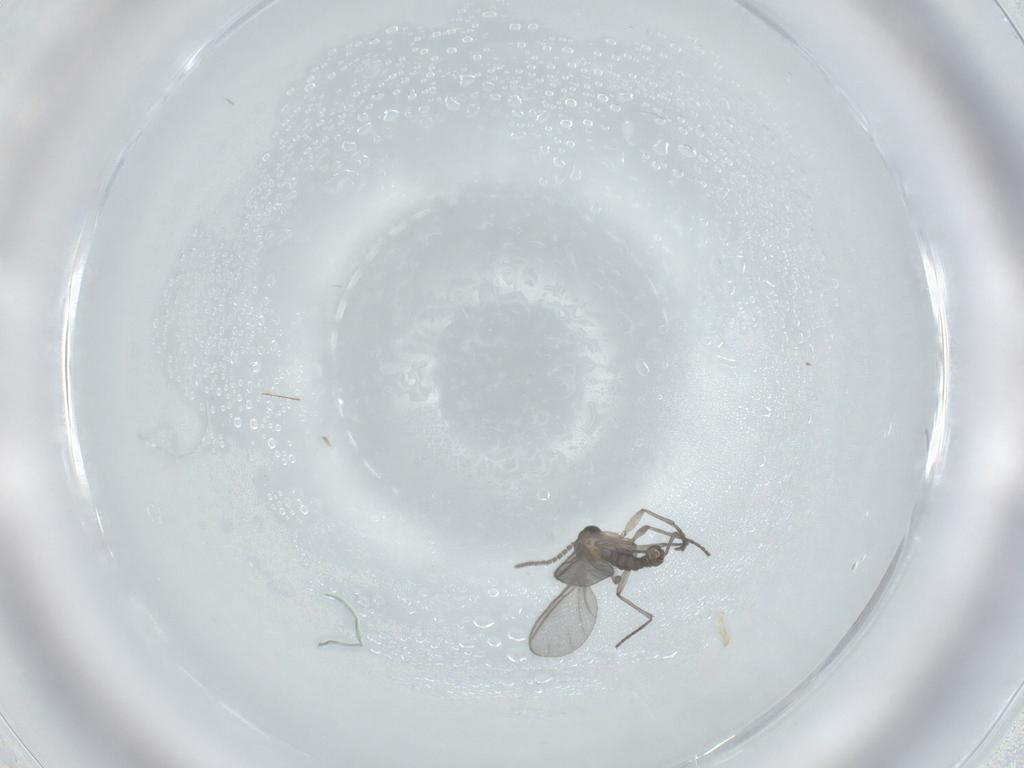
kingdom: Animalia
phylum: Arthropoda
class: Insecta
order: Diptera
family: Sciaridae
